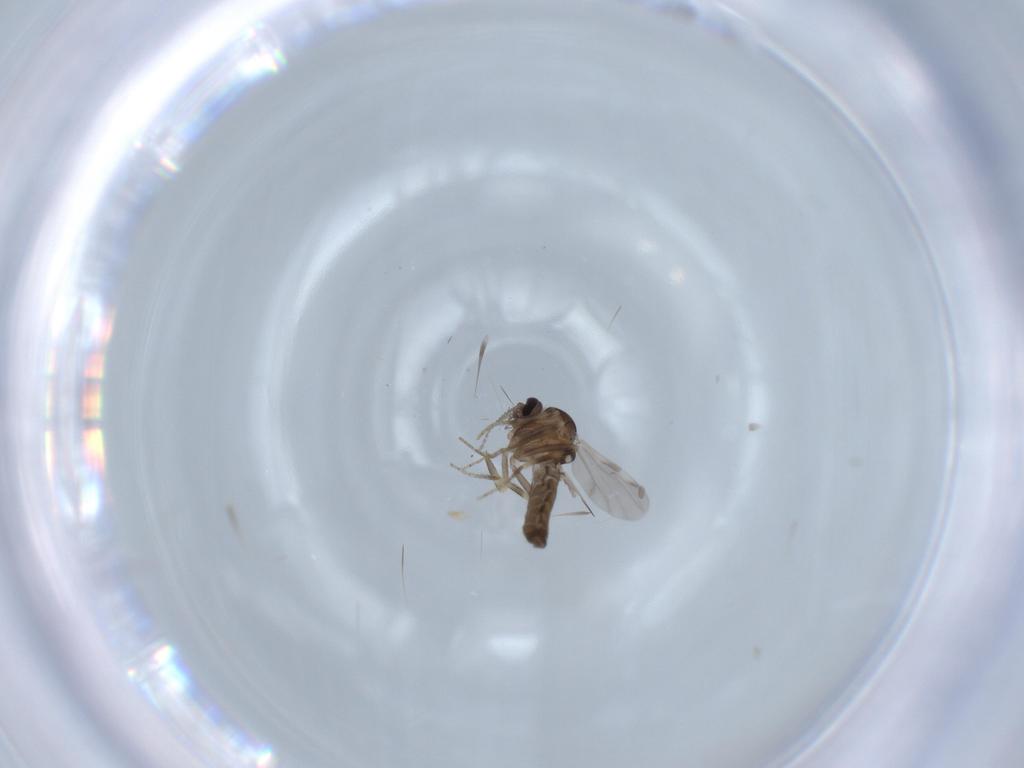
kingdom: Animalia
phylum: Arthropoda
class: Insecta
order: Diptera
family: Ceratopogonidae
